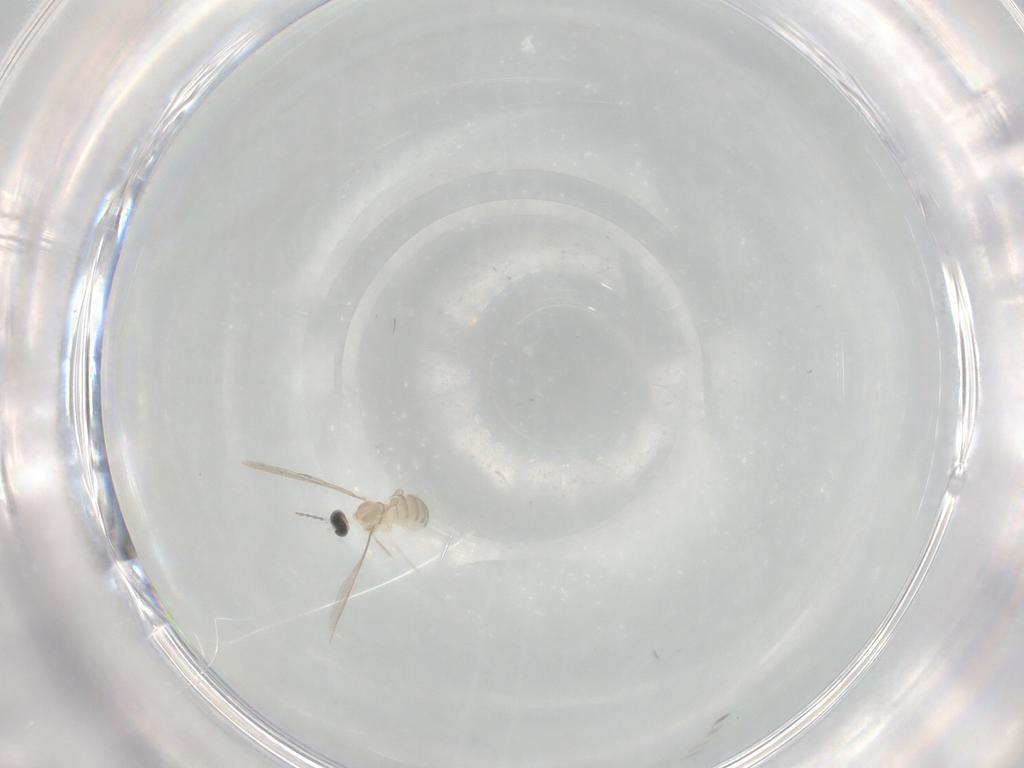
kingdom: Animalia
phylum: Arthropoda
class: Insecta
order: Diptera
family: Cecidomyiidae
